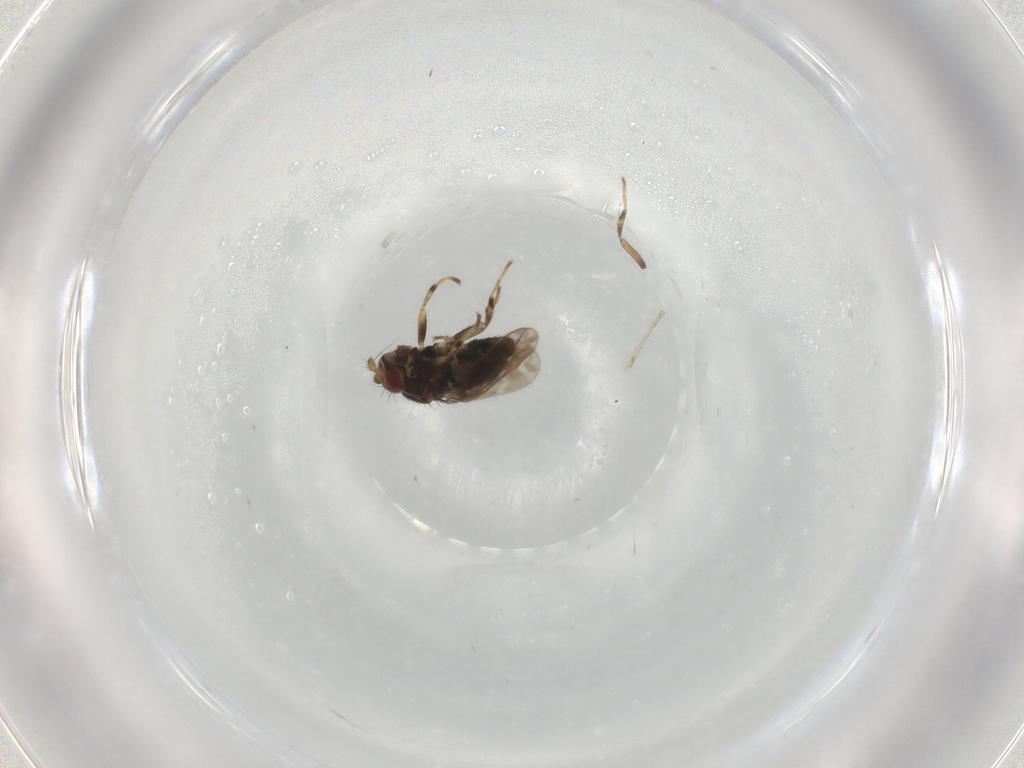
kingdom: Animalia
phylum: Arthropoda
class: Insecta
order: Diptera
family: Sphaeroceridae
